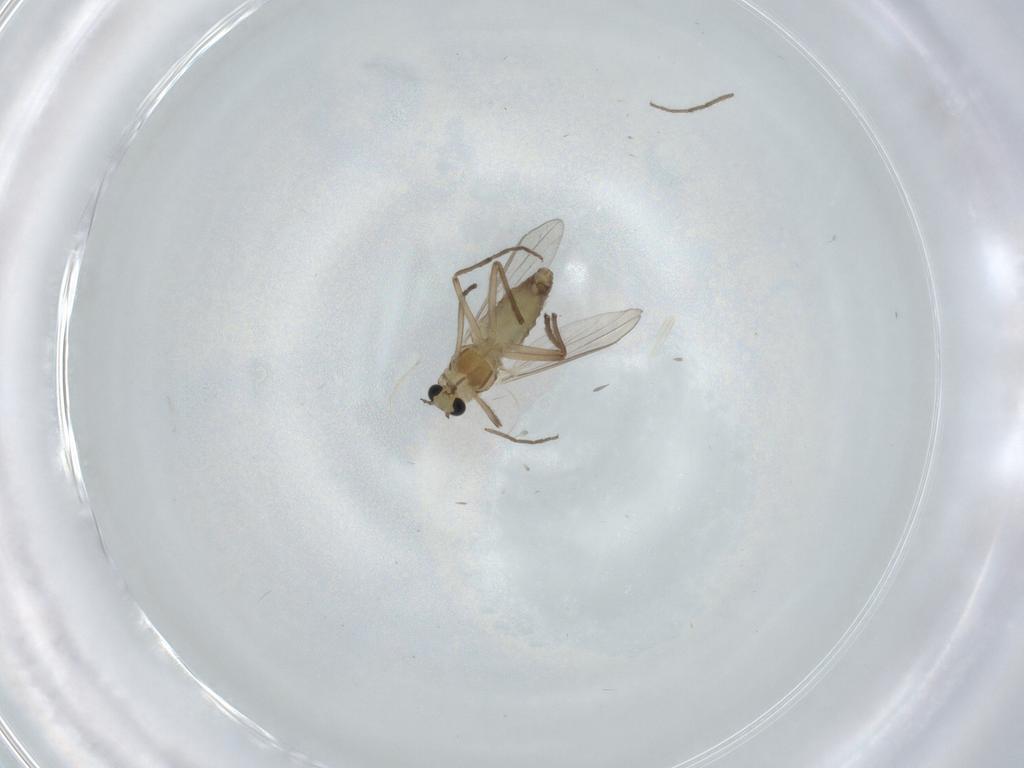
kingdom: Animalia
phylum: Arthropoda
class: Insecta
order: Diptera
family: Chironomidae
